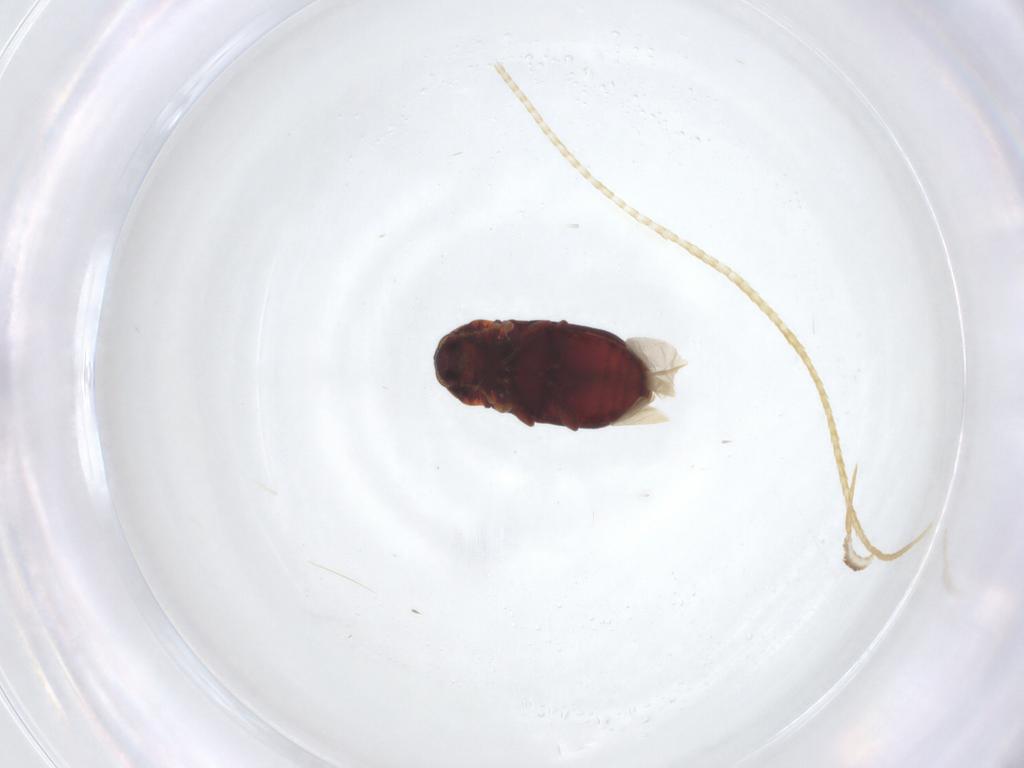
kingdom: Animalia
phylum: Arthropoda
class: Insecta
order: Coleoptera
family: Ptinidae
